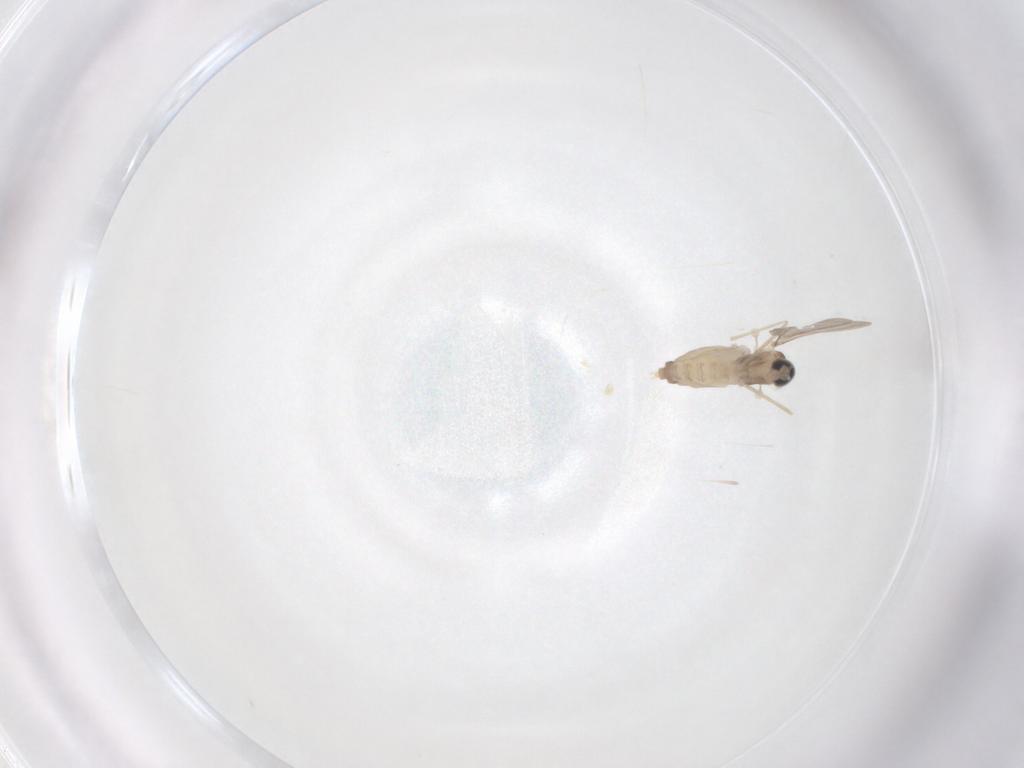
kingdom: Animalia
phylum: Arthropoda
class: Insecta
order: Diptera
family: Cecidomyiidae
